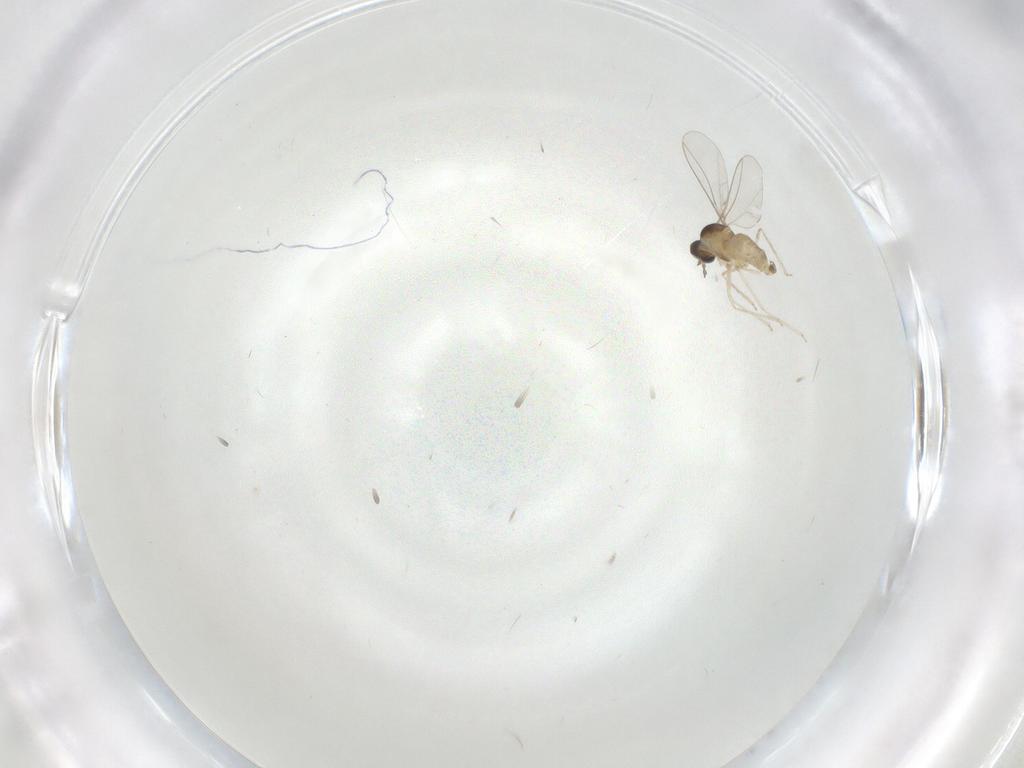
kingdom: Animalia
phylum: Arthropoda
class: Insecta
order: Diptera
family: Cecidomyiidae
